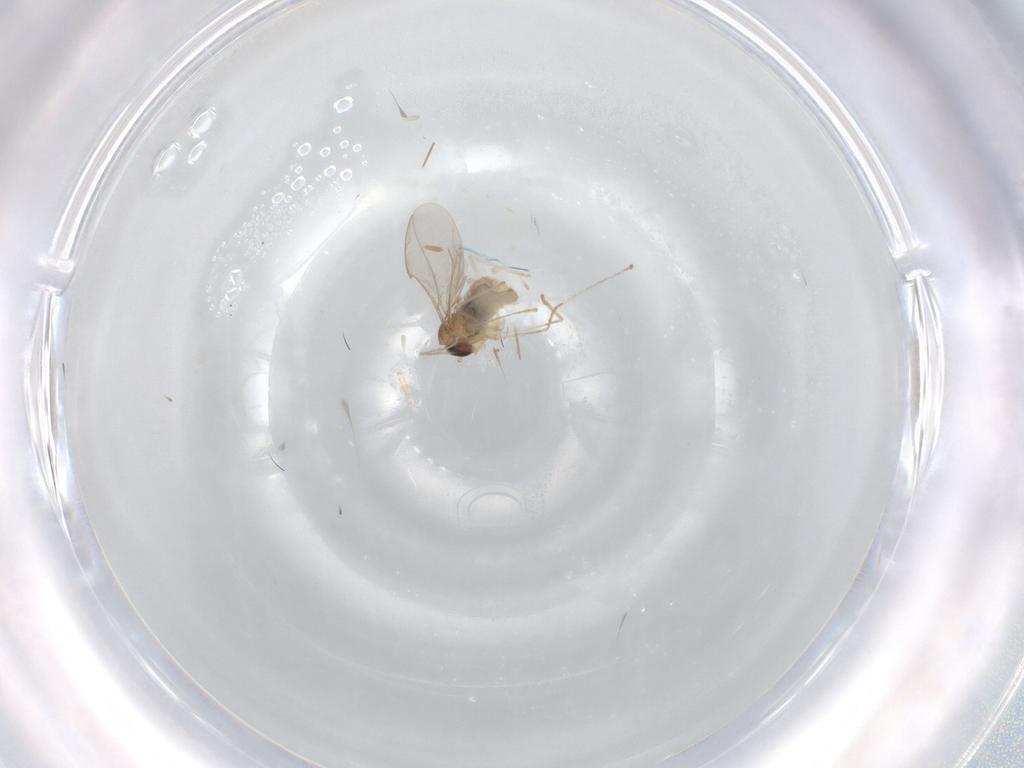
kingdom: Animalia
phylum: Arthropoda
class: Insecta
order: Diptera
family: Cecidomyiidae
